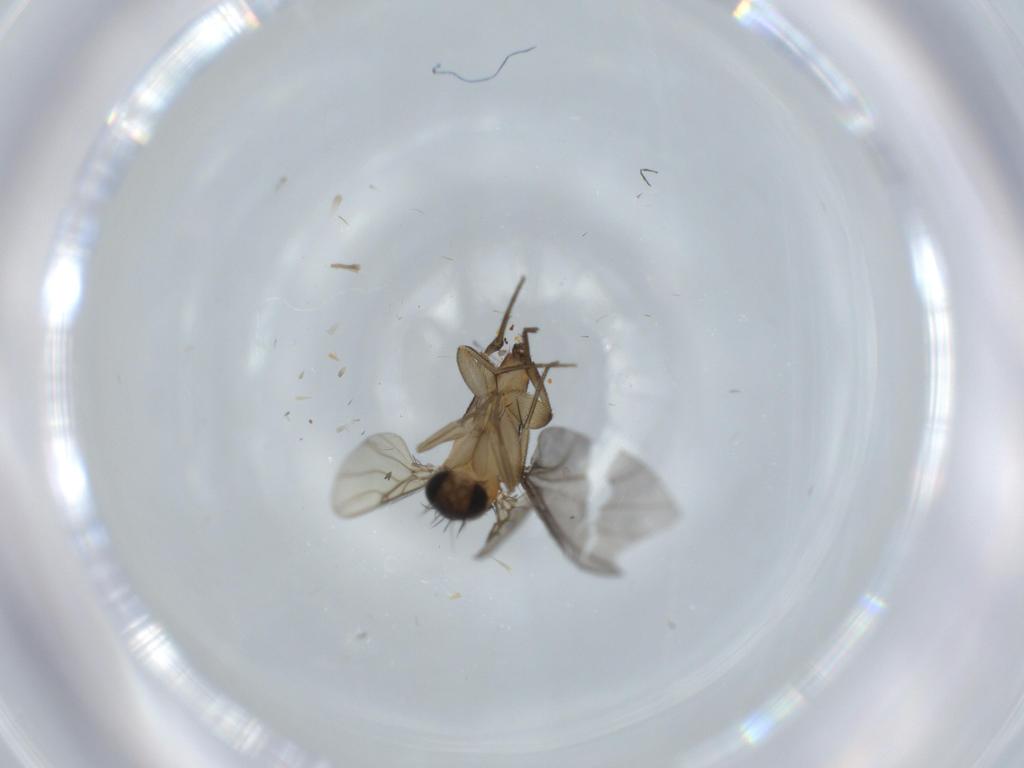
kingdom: Animalia
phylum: Arthropoda
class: Insecta
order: Diptera
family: Phoridae
